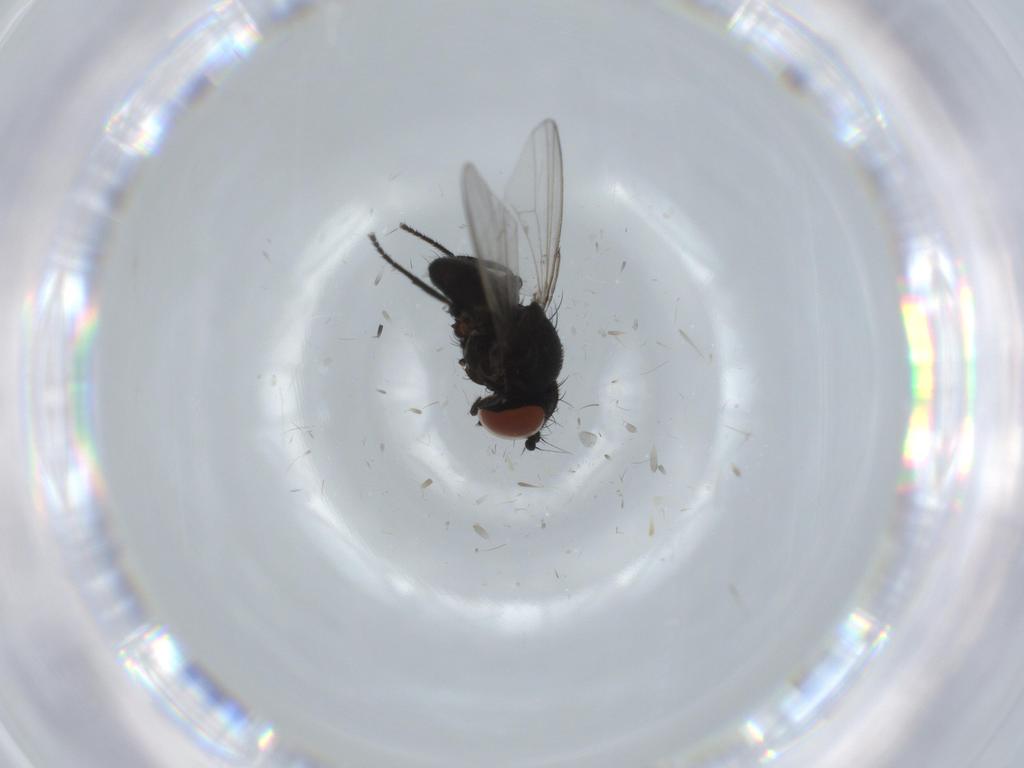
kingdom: Animalia
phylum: Arthropoda
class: Insecta
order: Diptera
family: Milichiidae
